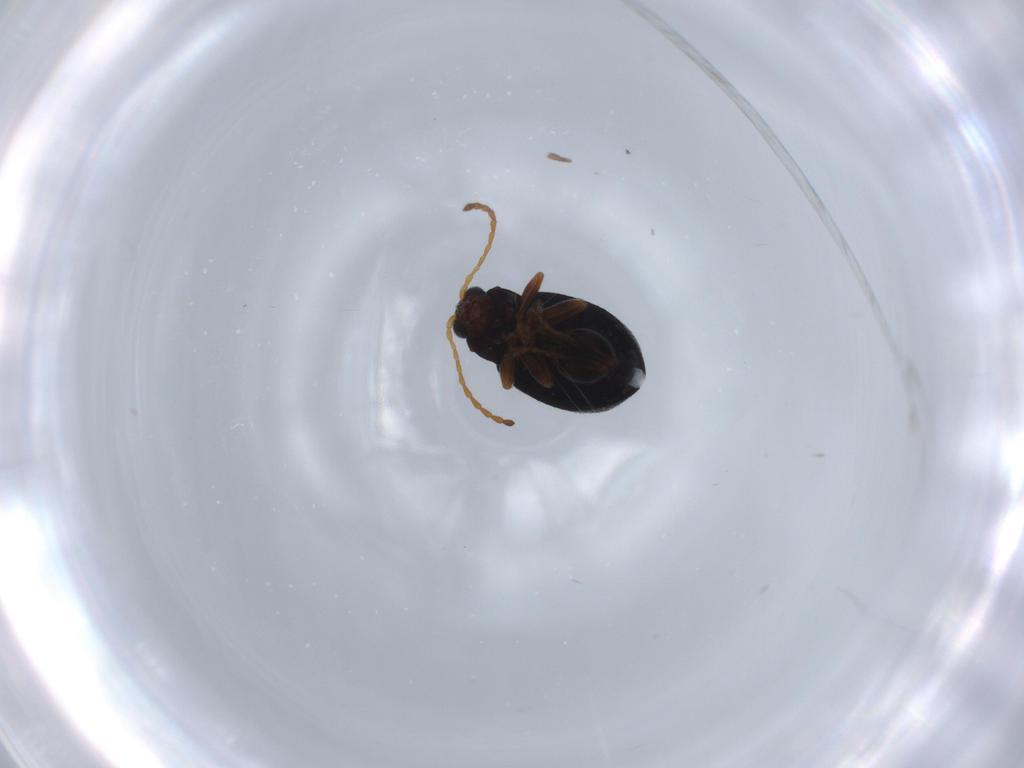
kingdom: Animalia
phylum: Arthropoda
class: Insecta
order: Coleoptera
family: Chrysomelidae
